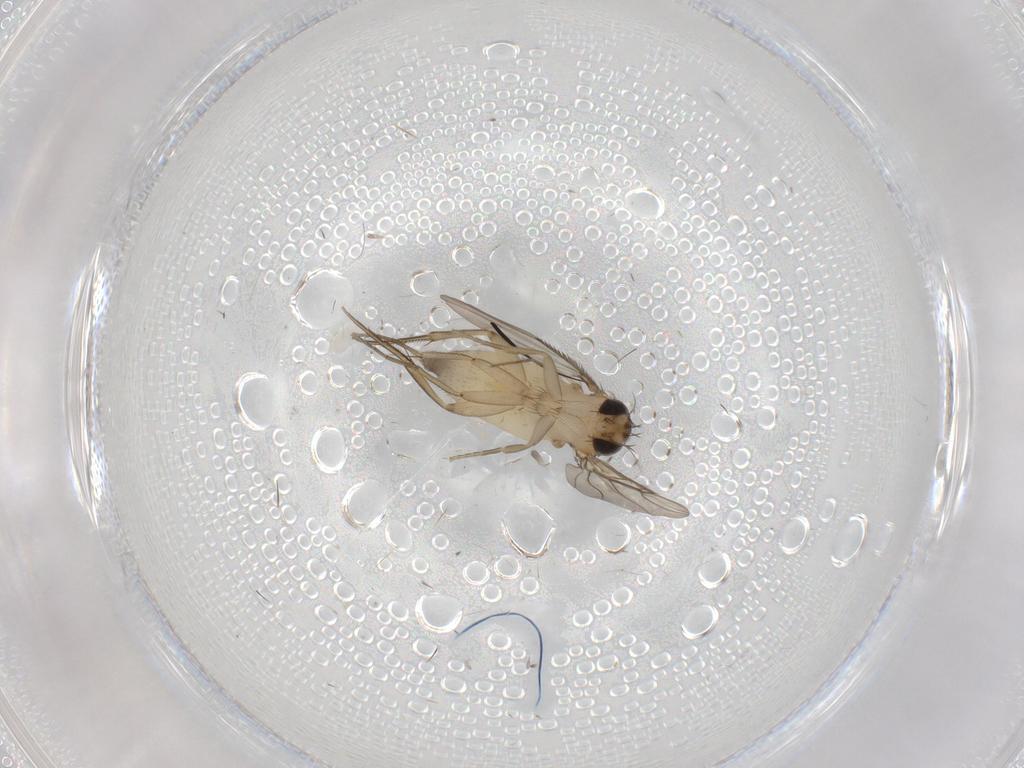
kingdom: Animalia
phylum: Arthropoda
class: Insecta
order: Diptera
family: Phoridae
